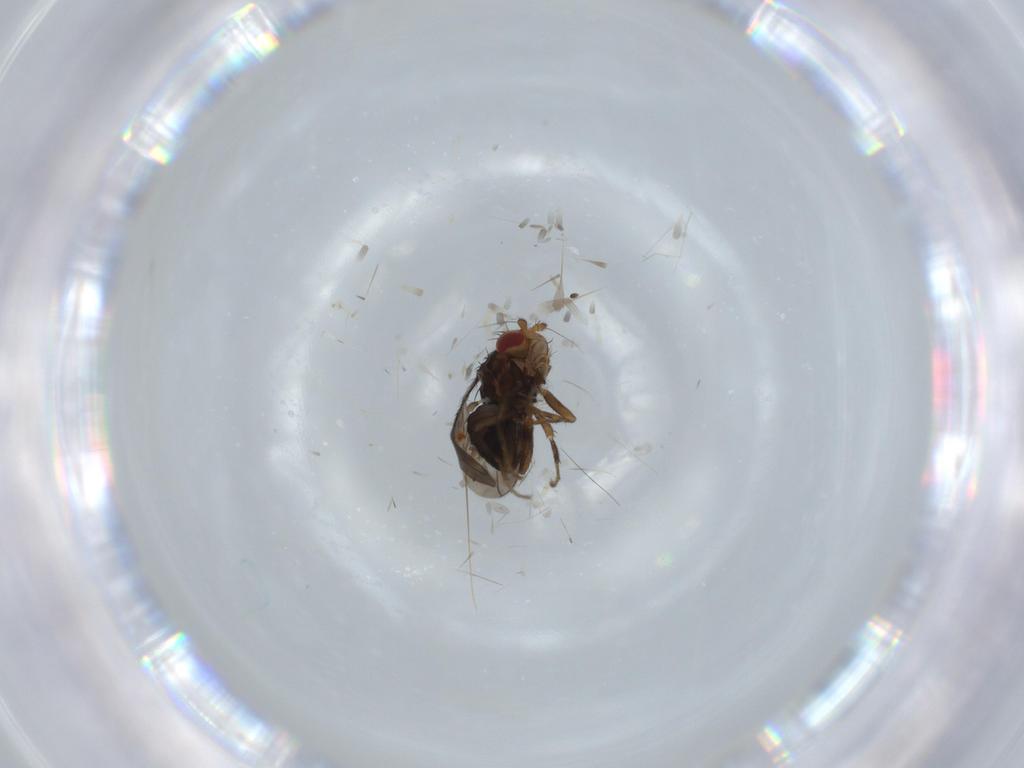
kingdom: Animalia
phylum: Arthropoda
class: Insecta
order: Diptera
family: Sphaeroceridae
